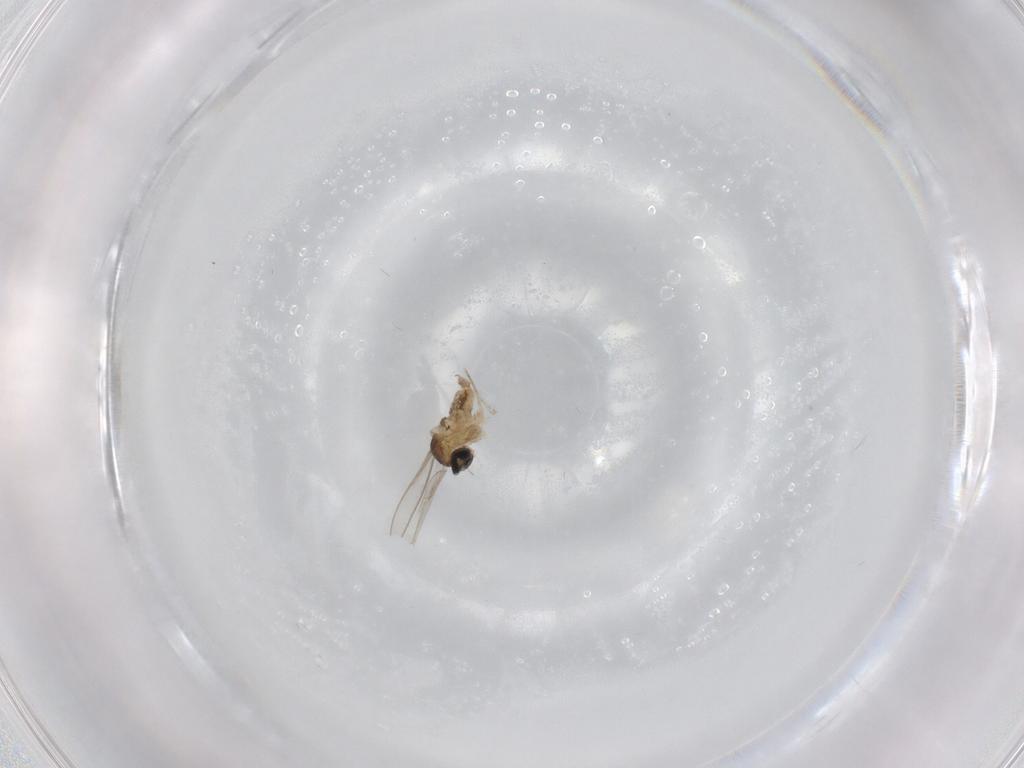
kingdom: Animalia
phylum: Arthropoda
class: Insecta
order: Diptera
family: Cecidomyiidae
